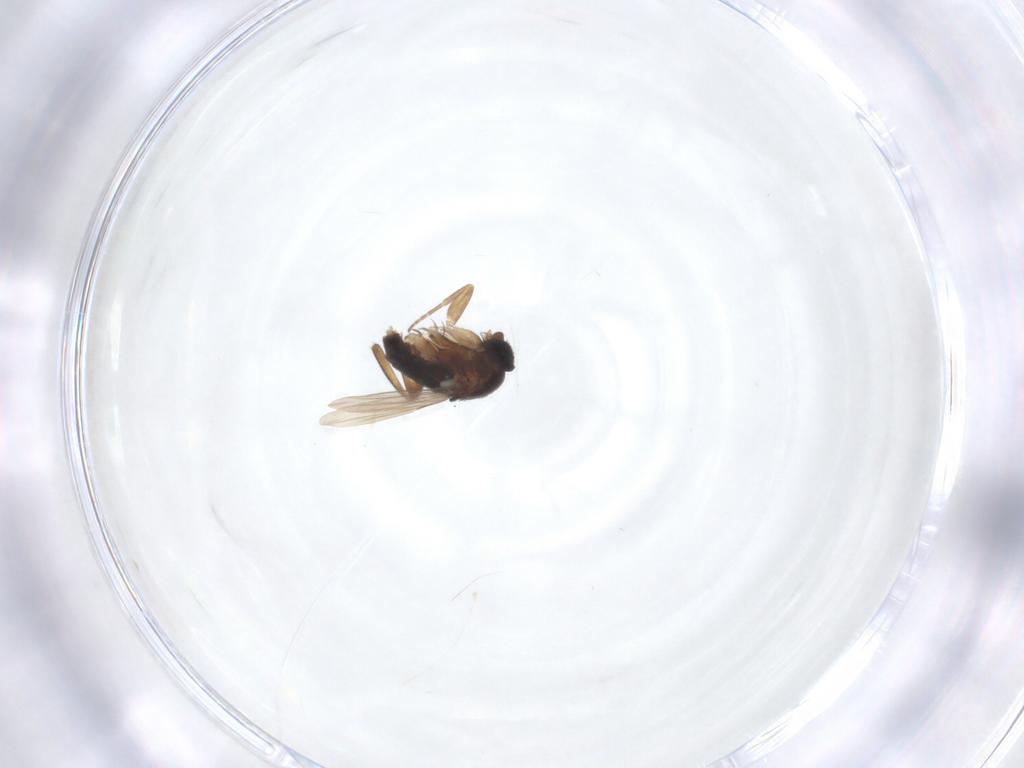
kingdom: Animalia
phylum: Arthropoda
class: Insecta
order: Diptera
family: Phoridae
